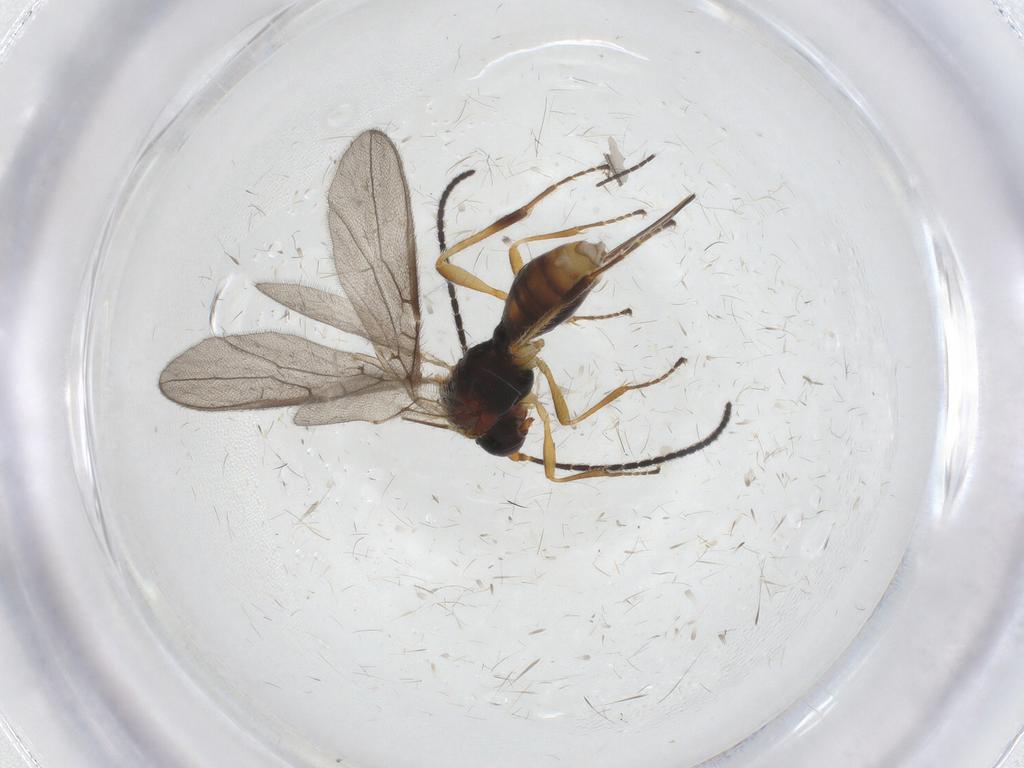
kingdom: Animalia
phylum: Arthropoda
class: Insecta
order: Hymenoptera
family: Braconidae
